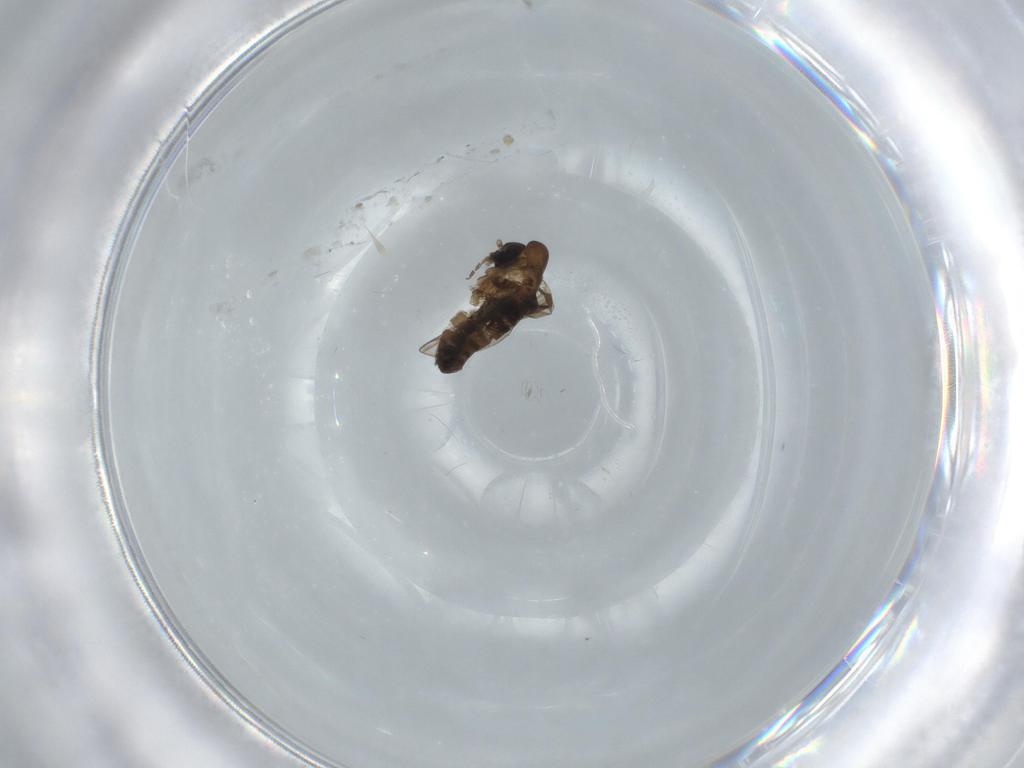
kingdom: Animalia
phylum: Arthropoda
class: Insecta
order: Diptera
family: Psychodidae
